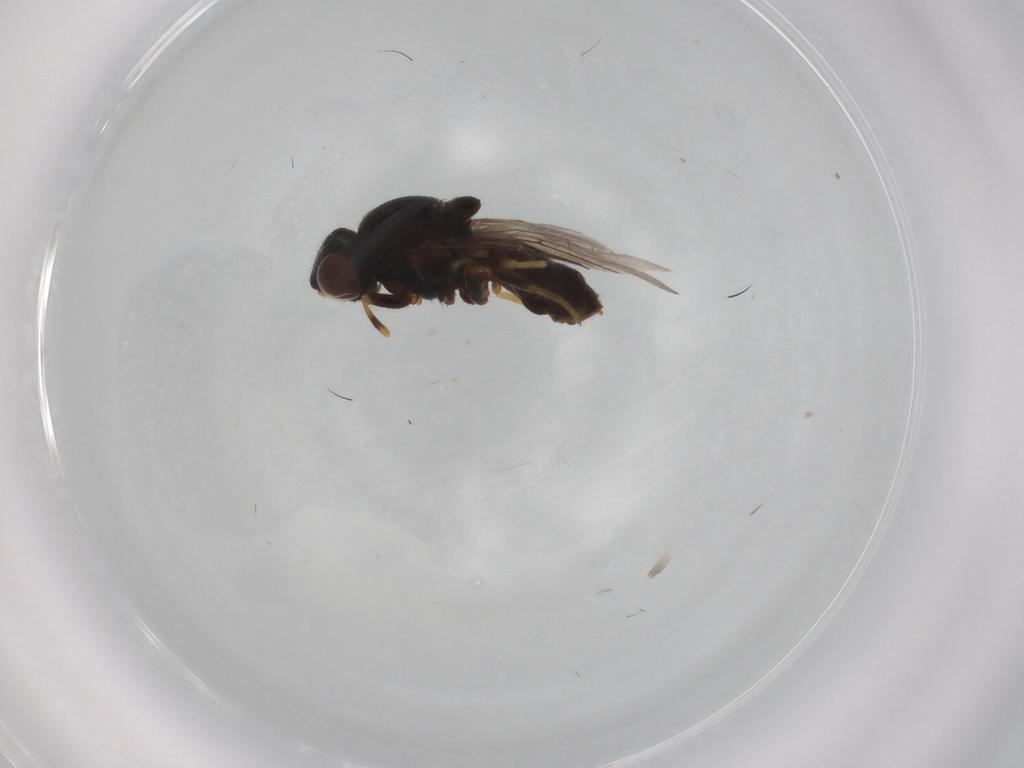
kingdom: Animalia
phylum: Arthropoda
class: Insecta
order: Diptera
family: Chloropidae
